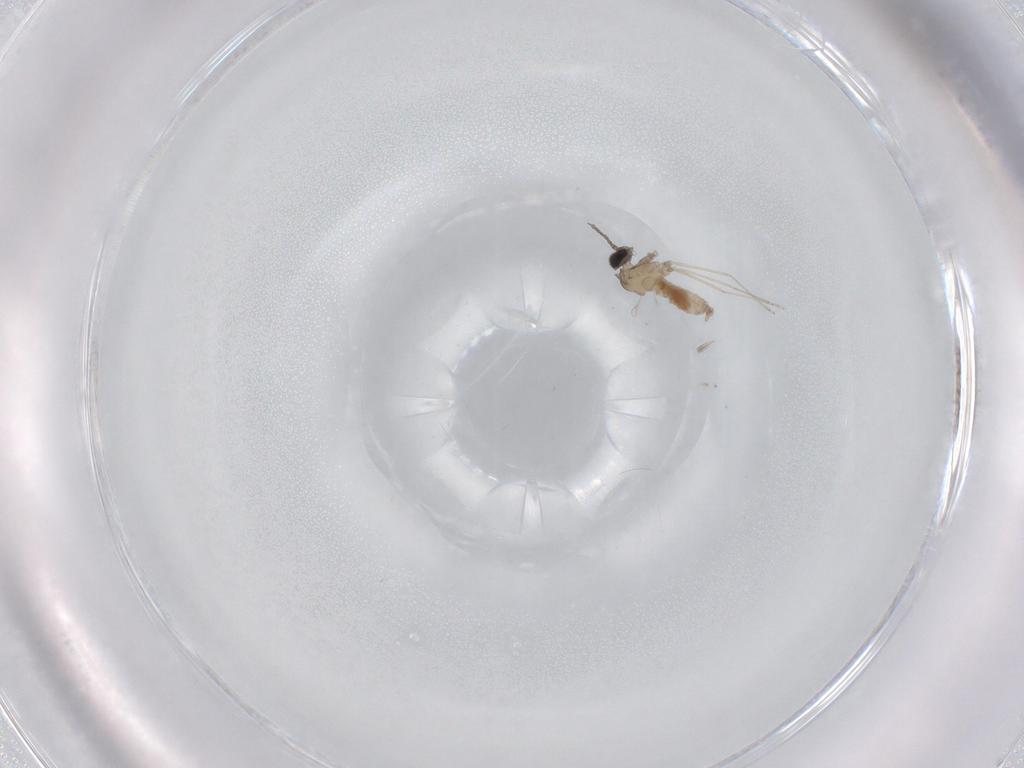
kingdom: Animalia
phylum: Arthropoda
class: Insecta
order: Diptera
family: Cecidomyiidae
